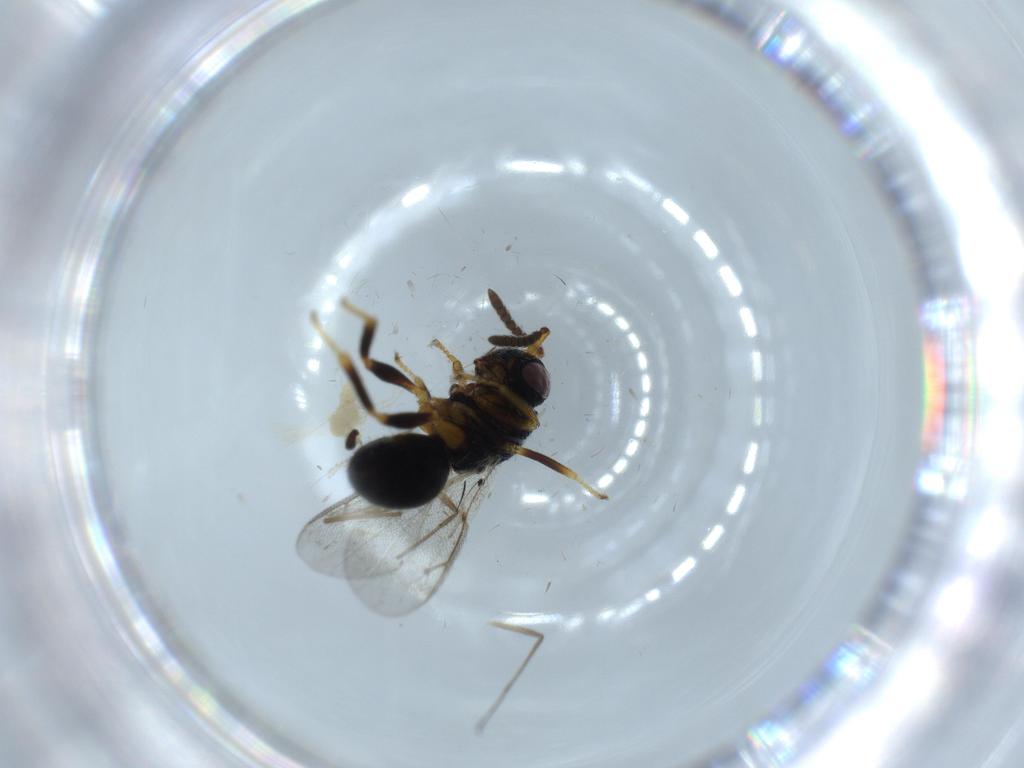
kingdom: Animalia
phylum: Arthropoda
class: Insecta
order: Hymenoptera
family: Eurytomidae
